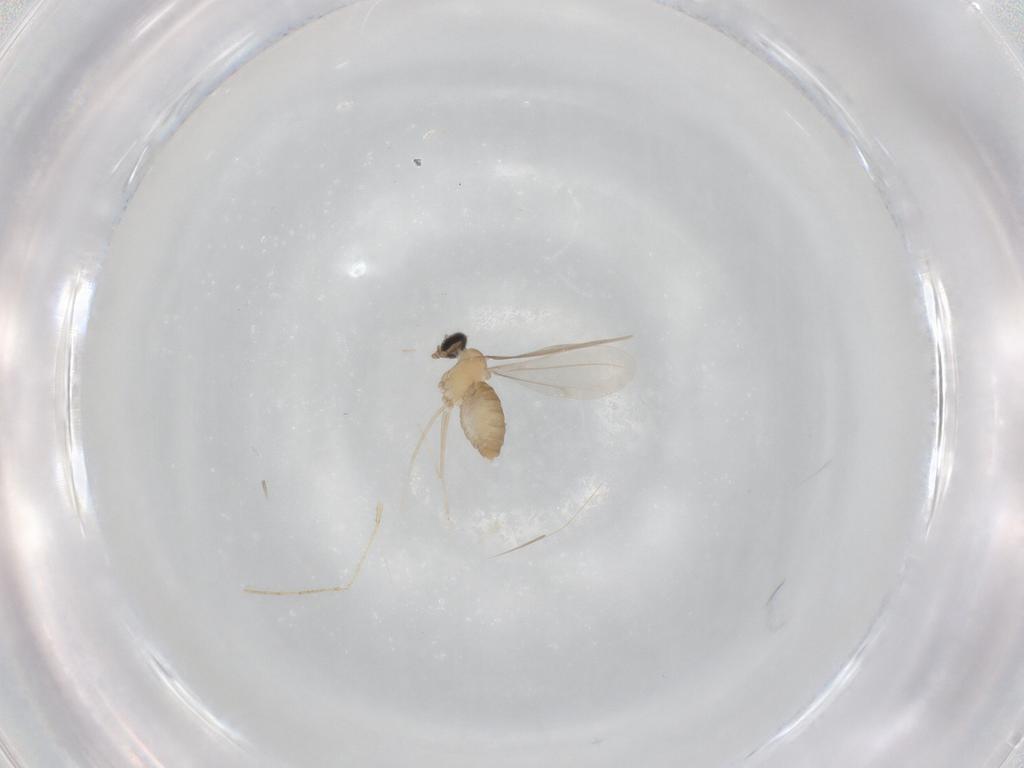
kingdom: Animalia
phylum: Arthropoda
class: Insecta
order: Diptera
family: Psychodidae
